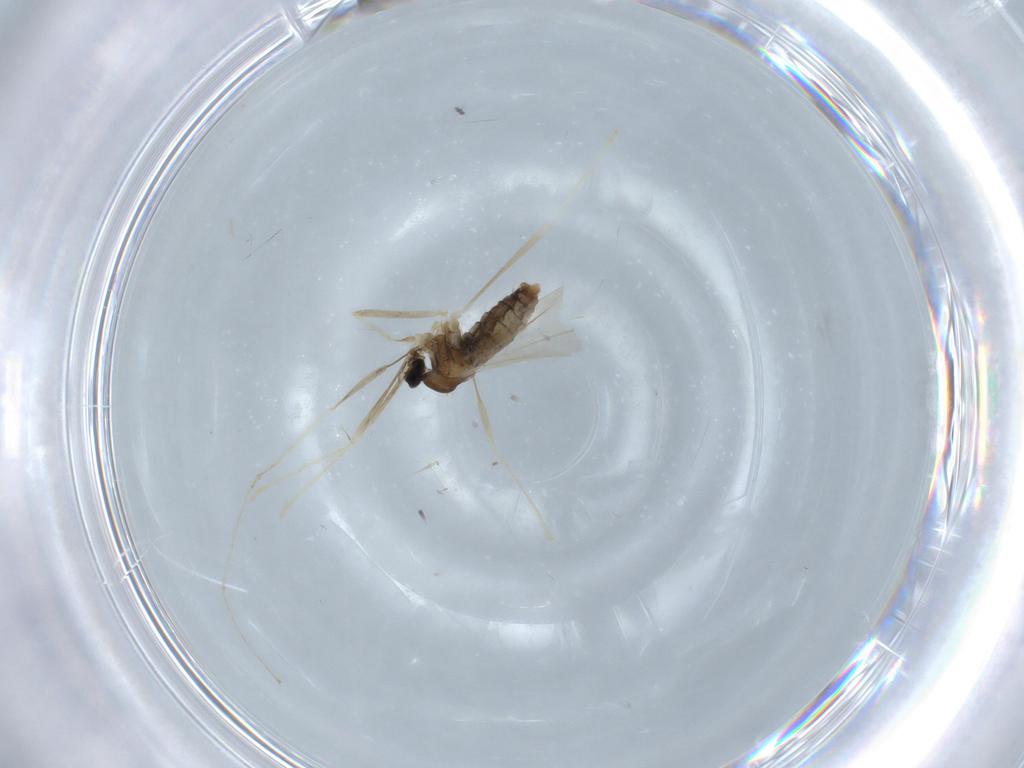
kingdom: Animalia
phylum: Arthropoda
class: Insecta
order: Diptera
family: Cecidomyiidae
